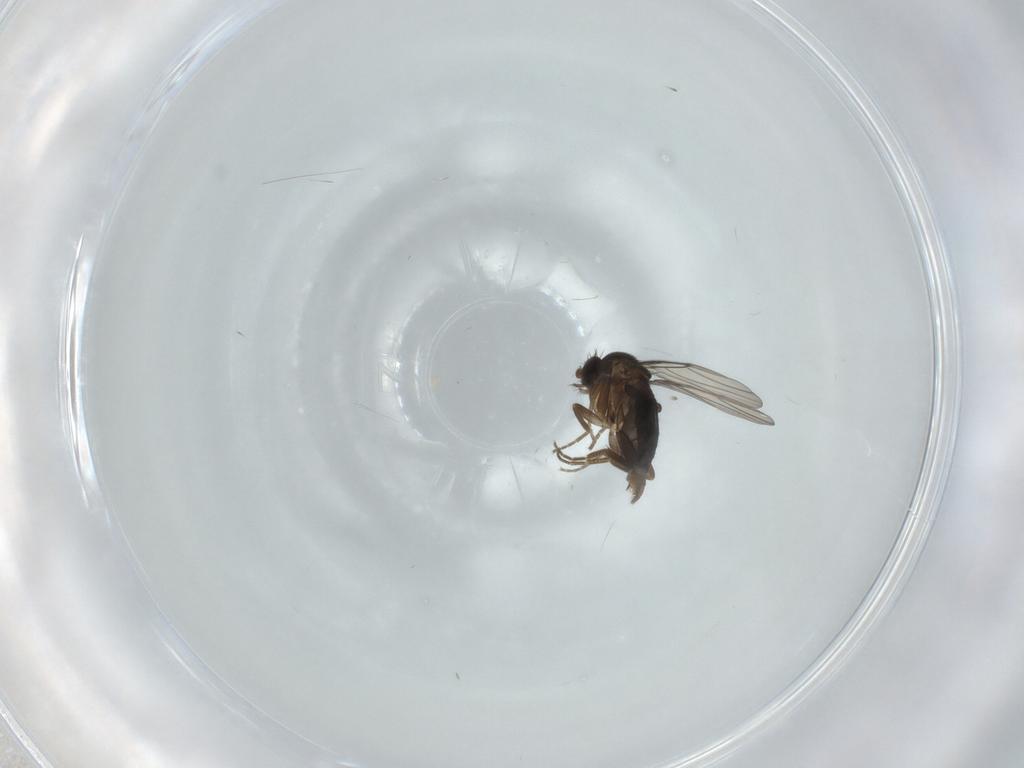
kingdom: Animalia
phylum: Arthropoda
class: Insecta
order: Diptera
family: Phoridae
